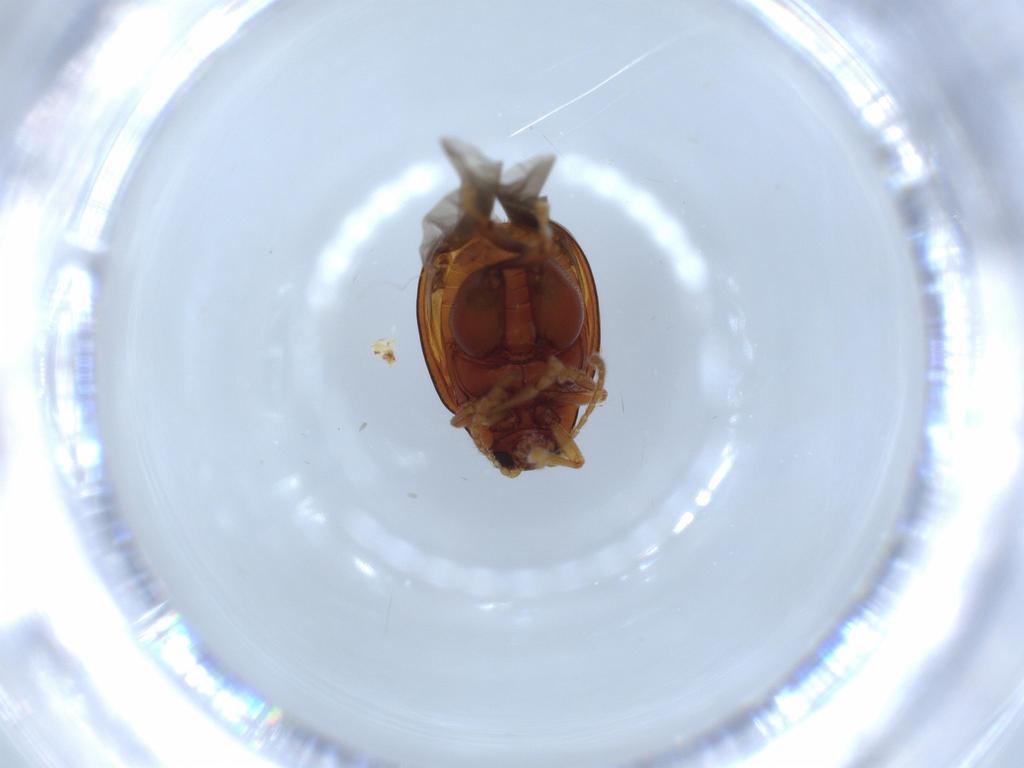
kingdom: Animalia
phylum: Arthropoda
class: Insecta
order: Coleoptera
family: Chrysomelidae
